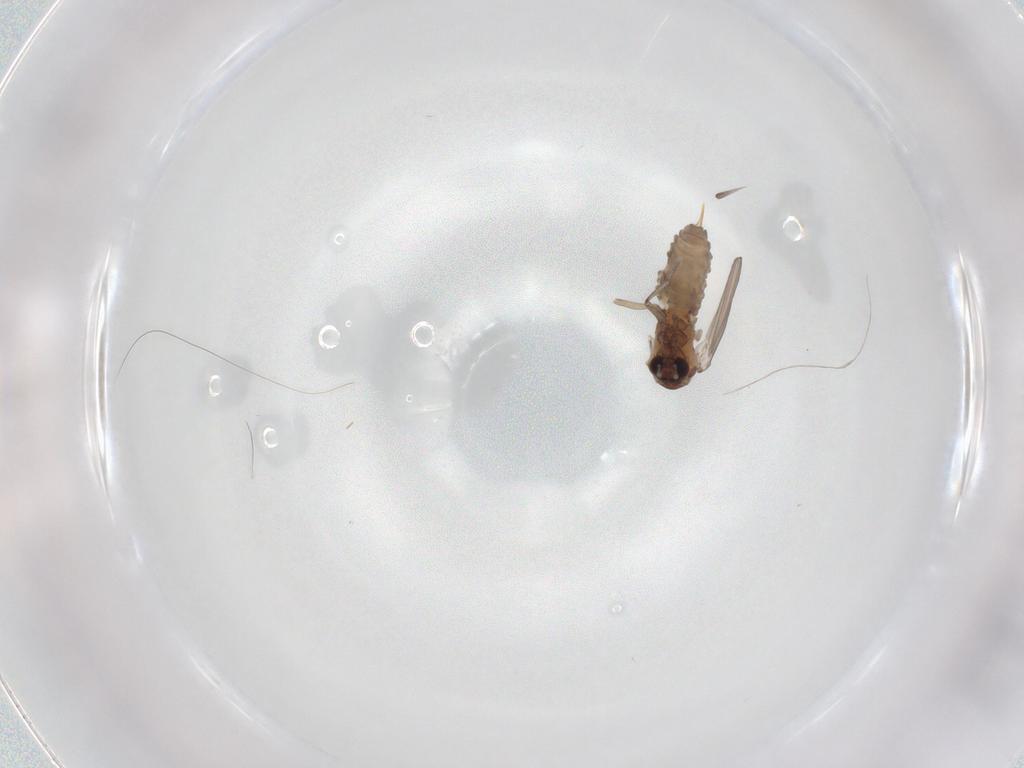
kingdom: Animalia
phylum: Arthropoda
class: Insecta
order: Diptera
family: Psychodidae
